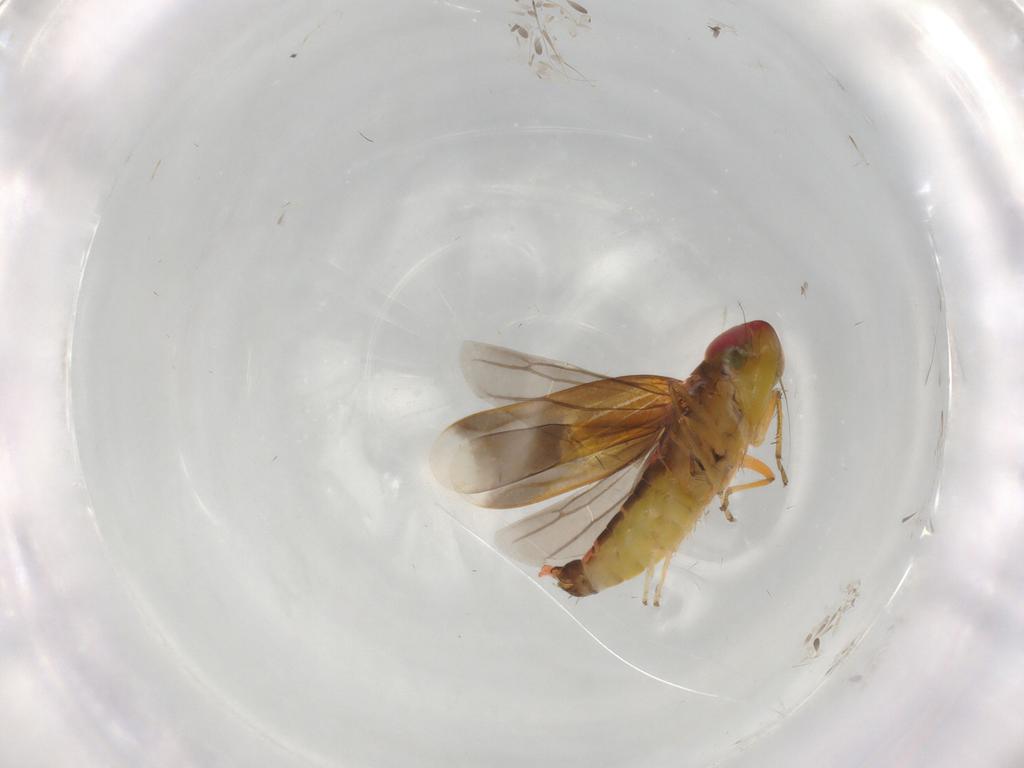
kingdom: Animalia
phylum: Arthropoda
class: Insecta
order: Hemiptera
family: Cicadellidae
